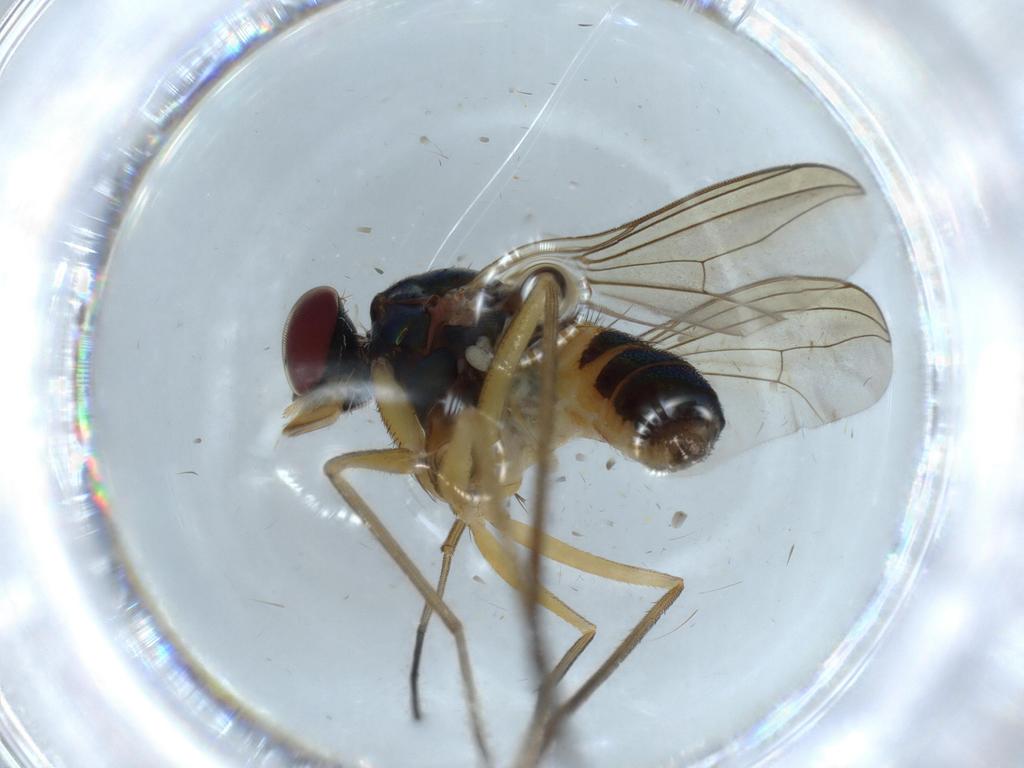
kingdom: Animalia
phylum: Arthropoda
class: Insecta
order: Diptera
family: Sciaridae
